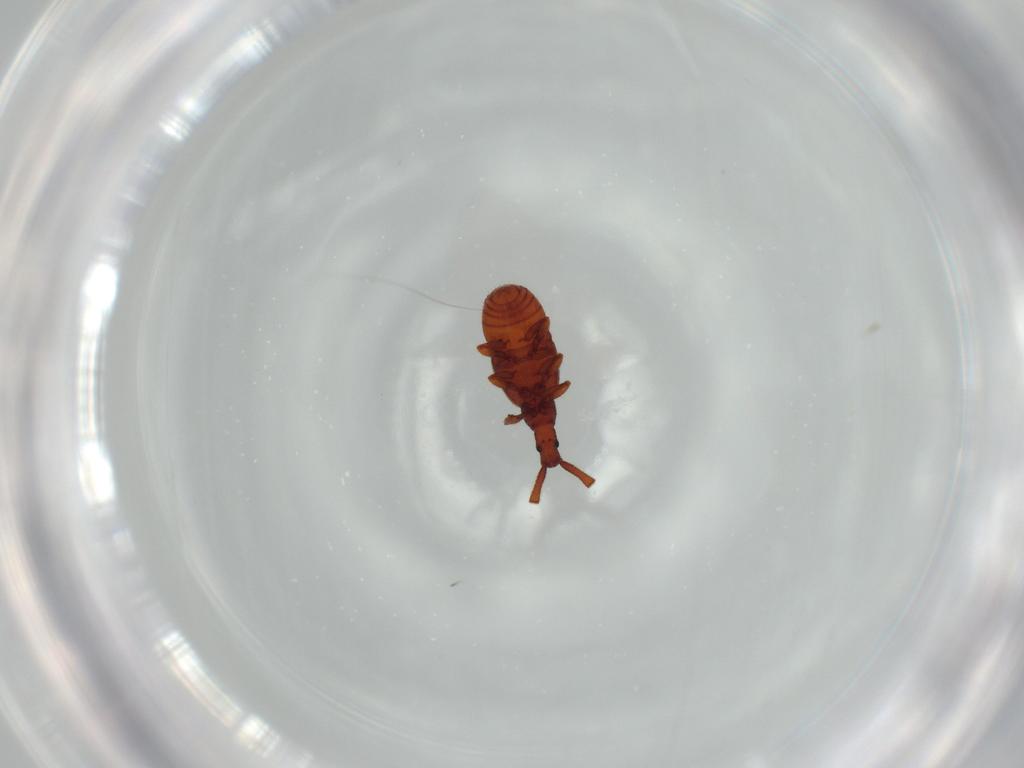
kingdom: Animalia
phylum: Arthropoda
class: Insecta
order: Coleoptera
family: Staphylinidae
